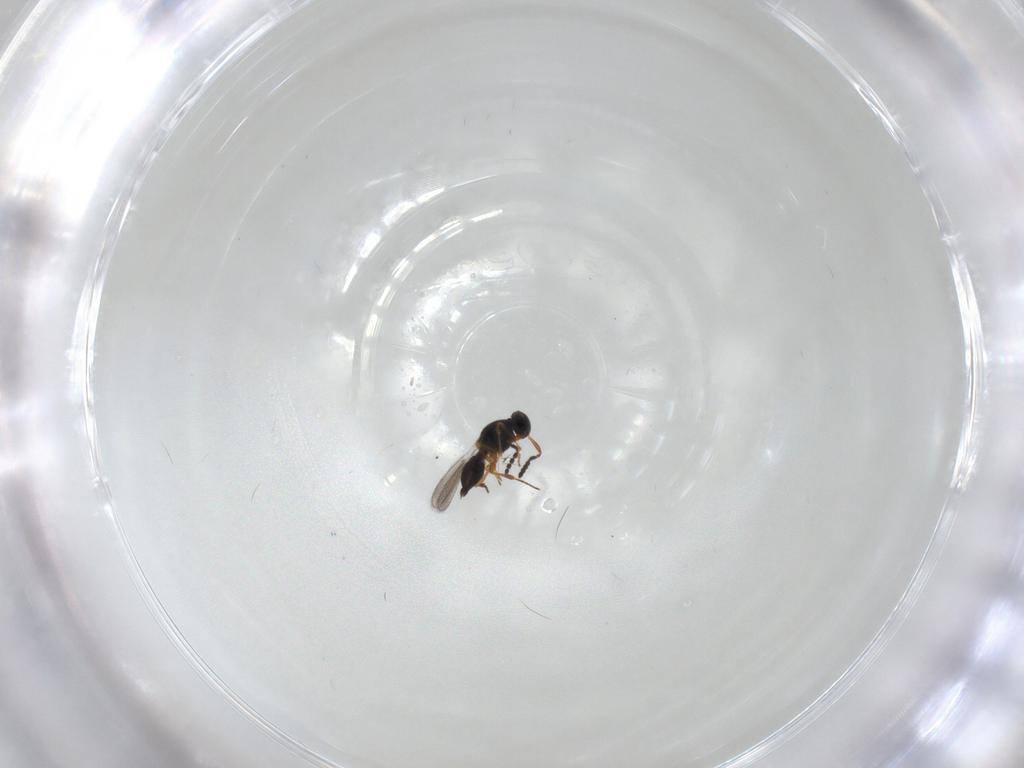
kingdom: Animalia
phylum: Arthropoda
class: Insecta
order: Hymenoptera
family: Platygastridae
